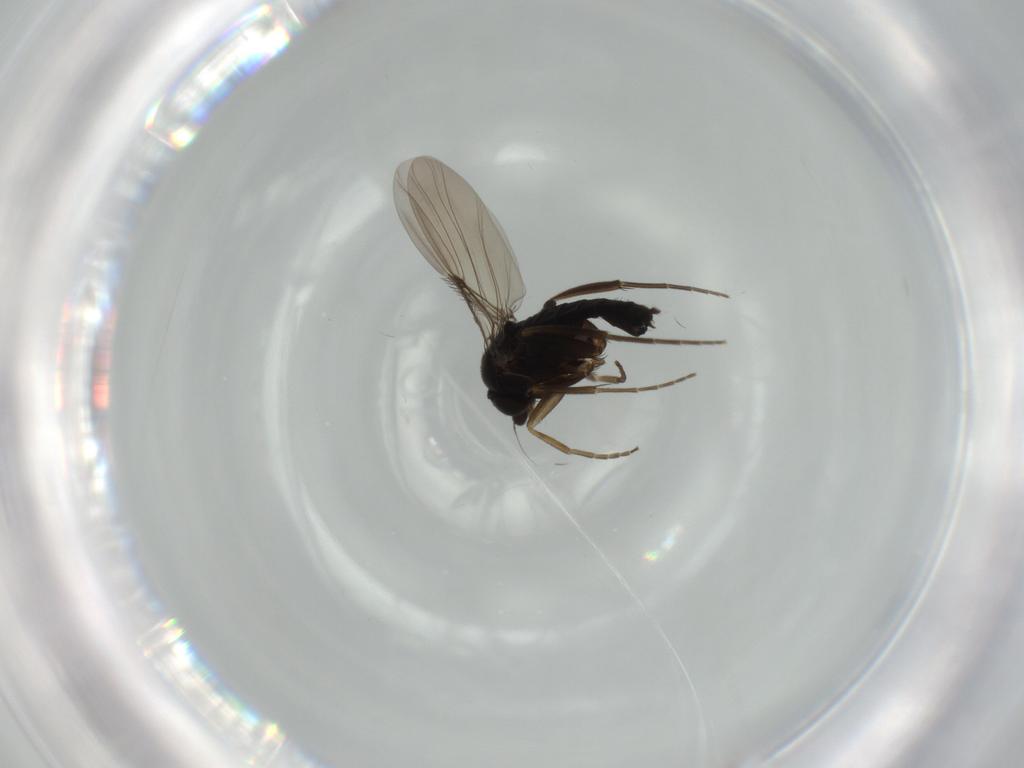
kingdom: Animalia
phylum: Arthropoda
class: Insecta
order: Diptera
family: Phoridae
